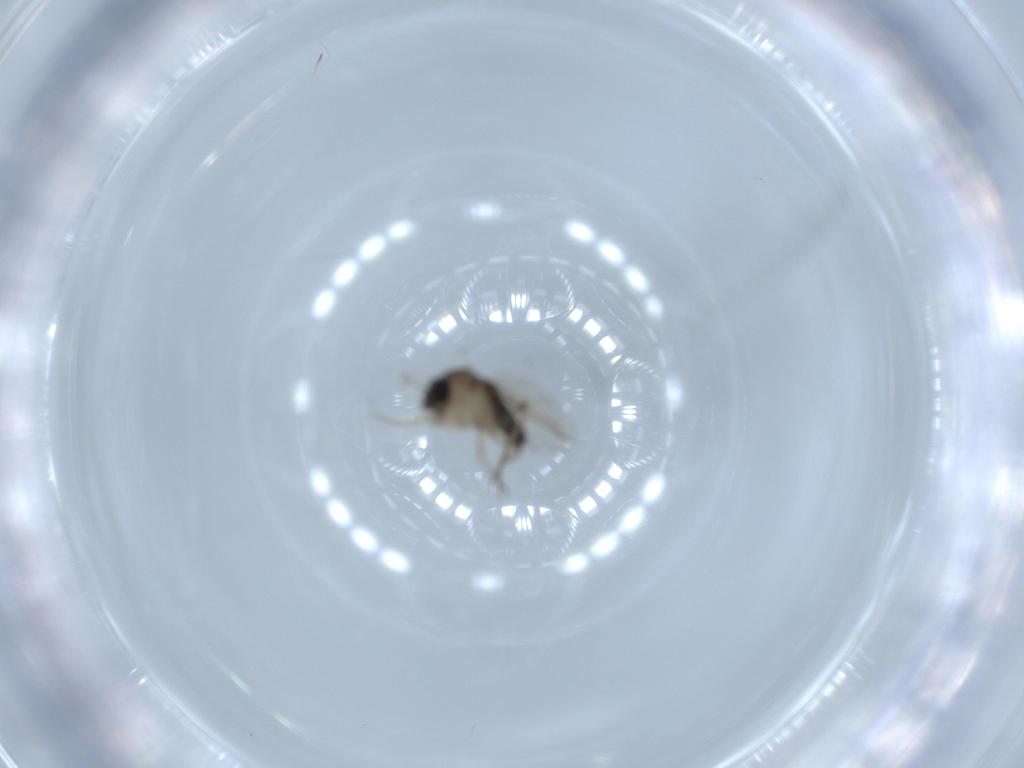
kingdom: Animalia
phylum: Arthropoda
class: Insecta
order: Diptera
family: Phoridae
